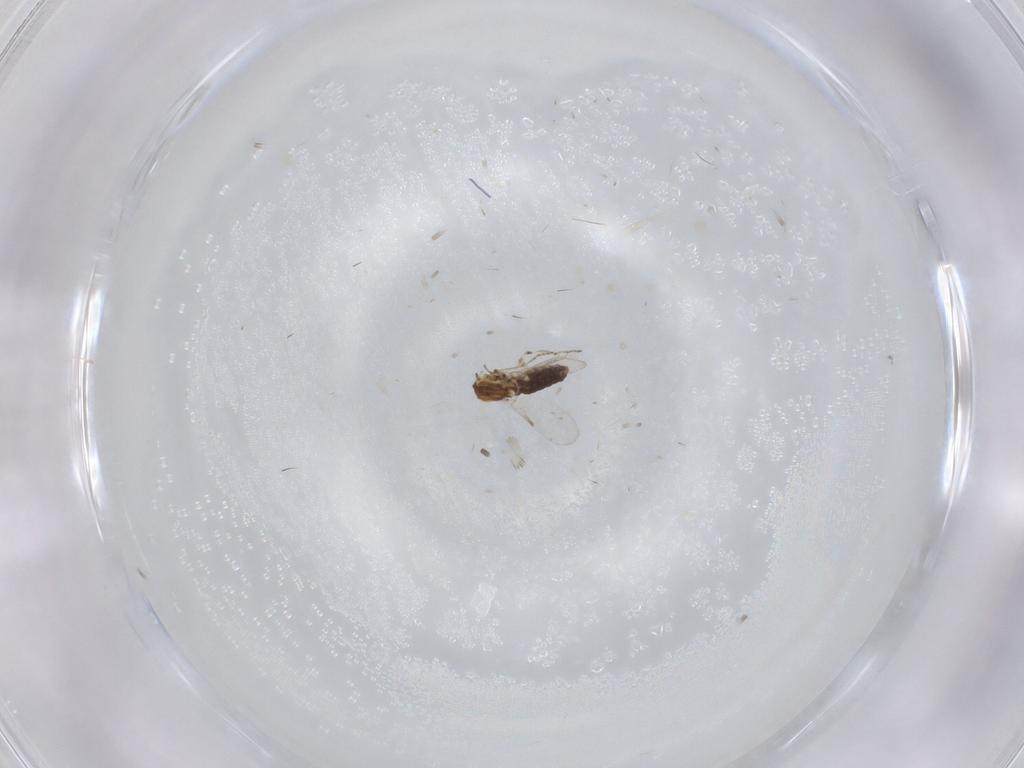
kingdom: Animalia
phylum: Arthropoda
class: Insecta
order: Diptera
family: Ceratopogonidae
